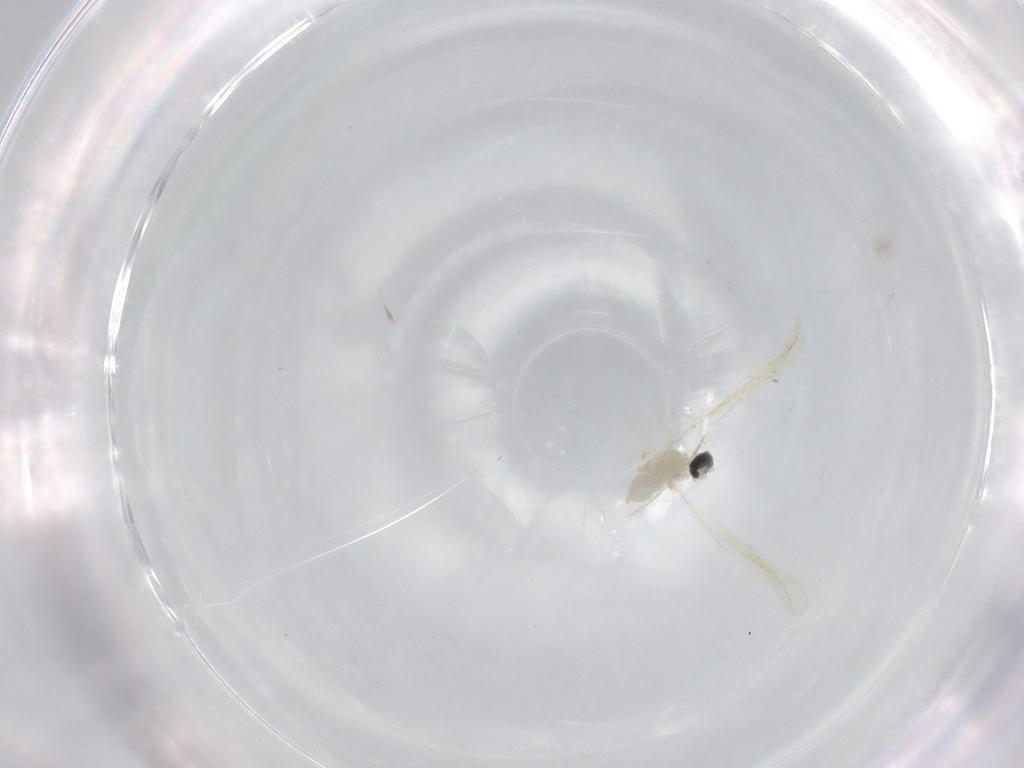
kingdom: Animalia
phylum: Arthropoda
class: Insecta
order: Diptera
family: Cecidomyiidae
